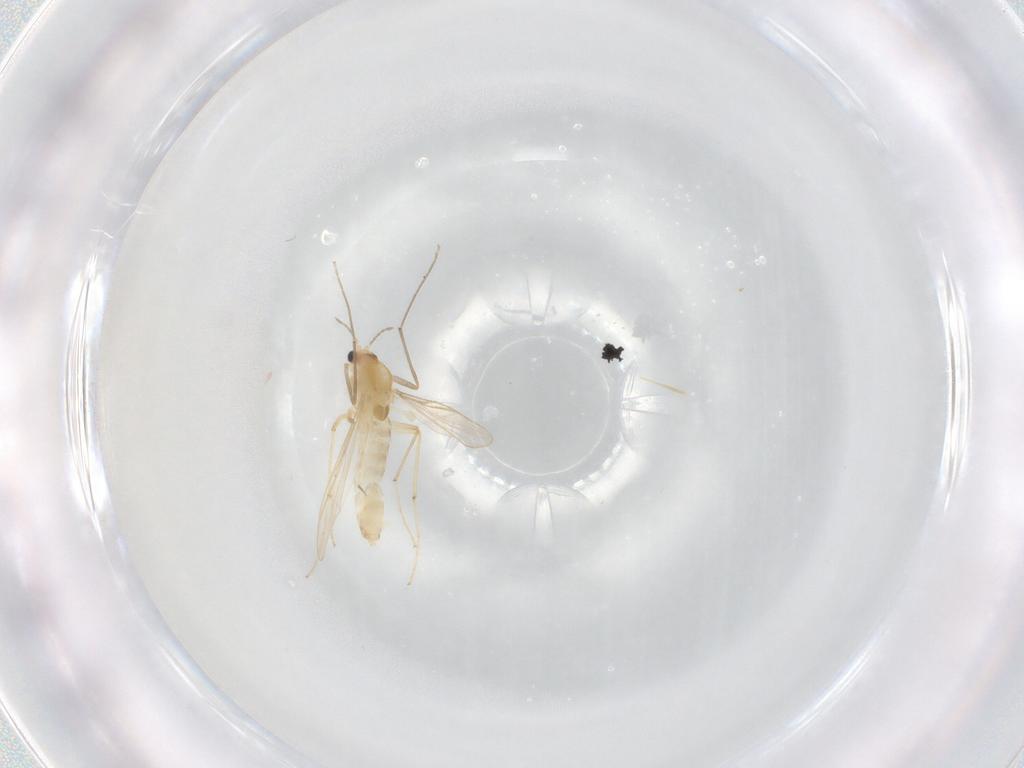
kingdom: Animalia
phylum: Arthropoda
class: Insecta
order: Diptera
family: Chironomidae
